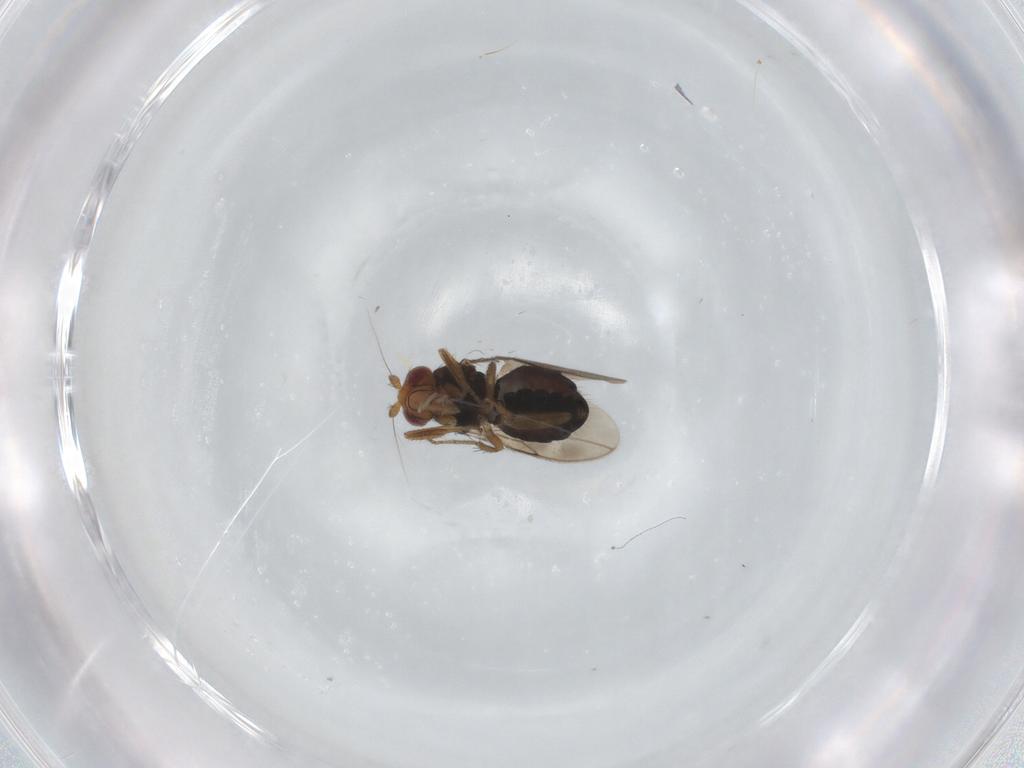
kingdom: Animalia
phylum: Arthropoda
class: Insecta
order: Diptera
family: Sphaeroceridae
